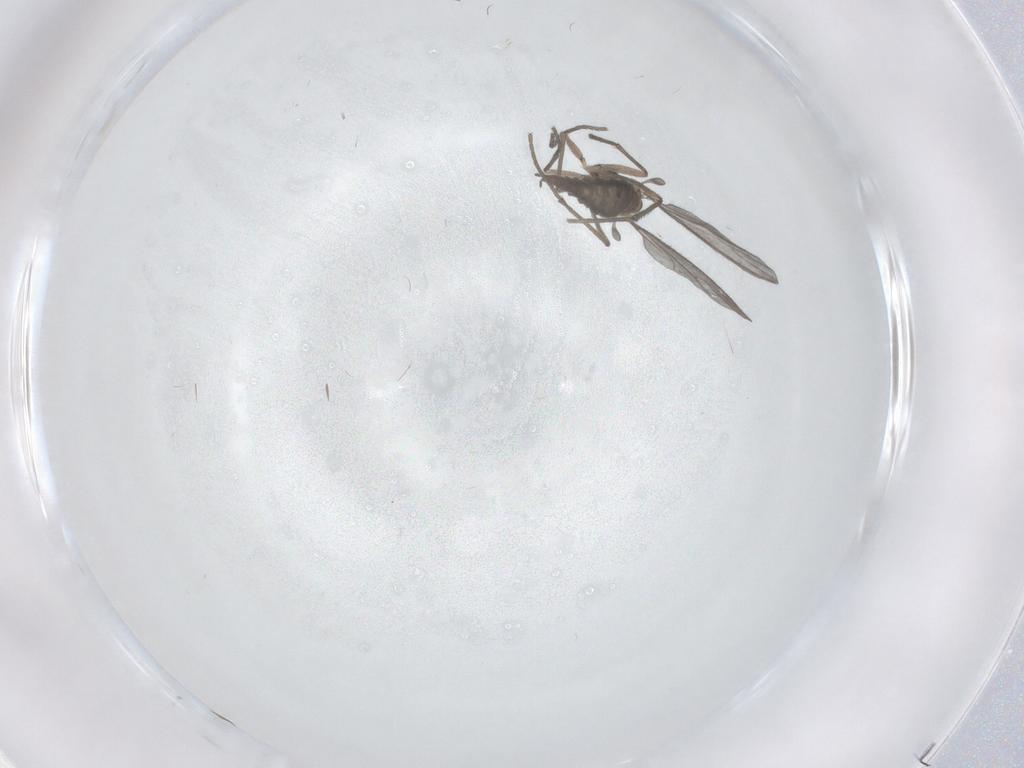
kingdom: Animalia
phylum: Arthropoda
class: Insecta
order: Diptera
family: Sciaridae
